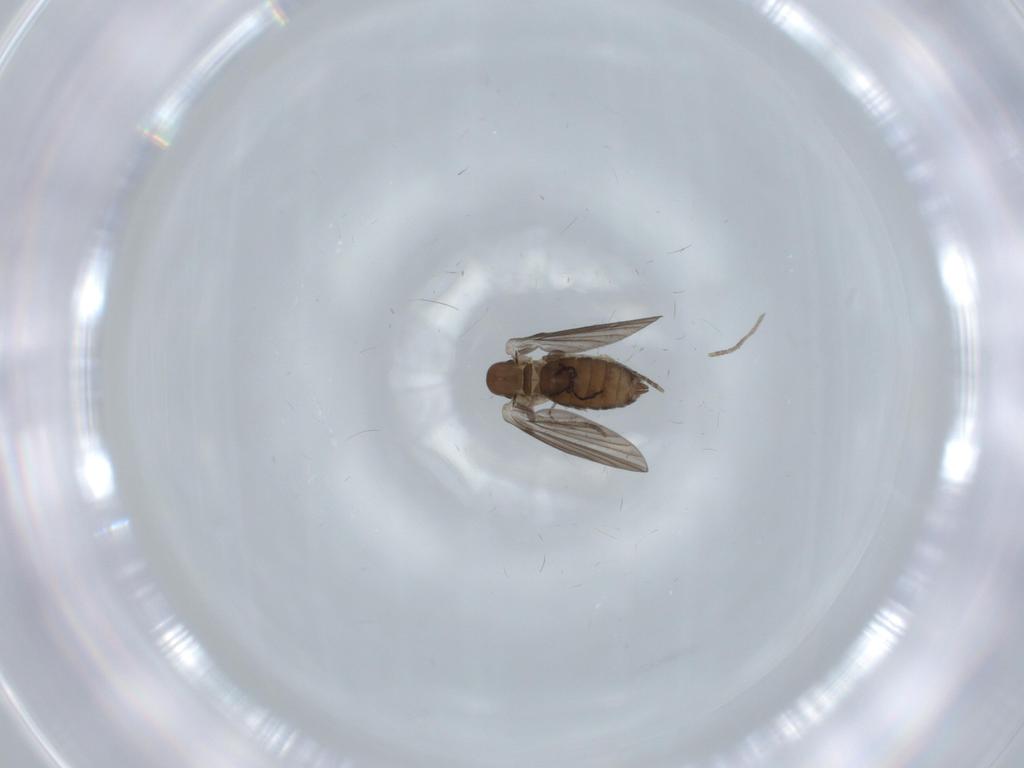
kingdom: Animalia
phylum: Arthropoda
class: Insecta
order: Diptera
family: Psychodidae
